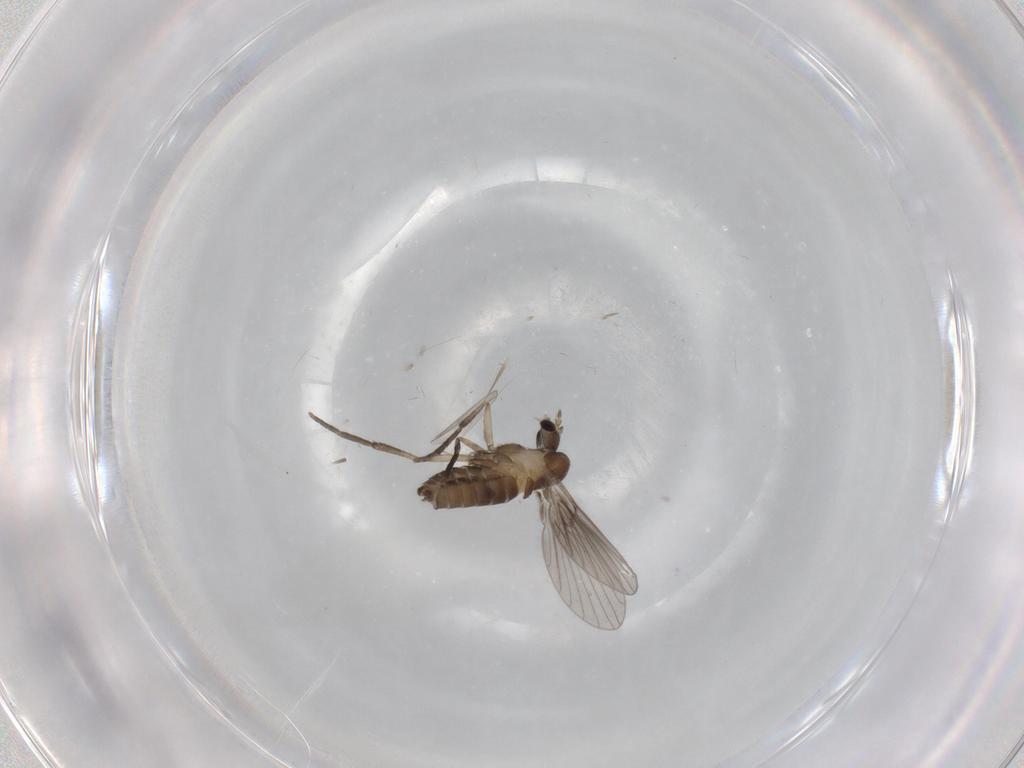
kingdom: Animalia
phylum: Arthropoda
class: Insecta
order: Diptera
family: Psychodidae
